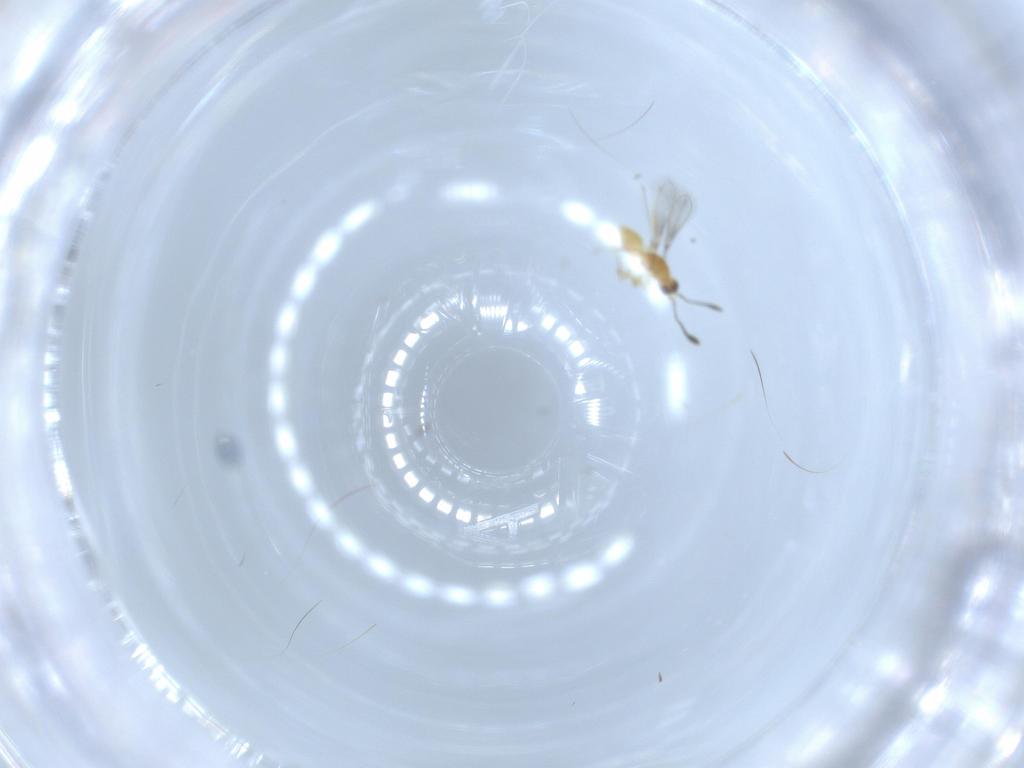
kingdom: Animalia
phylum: Arthropoda
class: Insecta
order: Hymenoptera
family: Mymaridae
